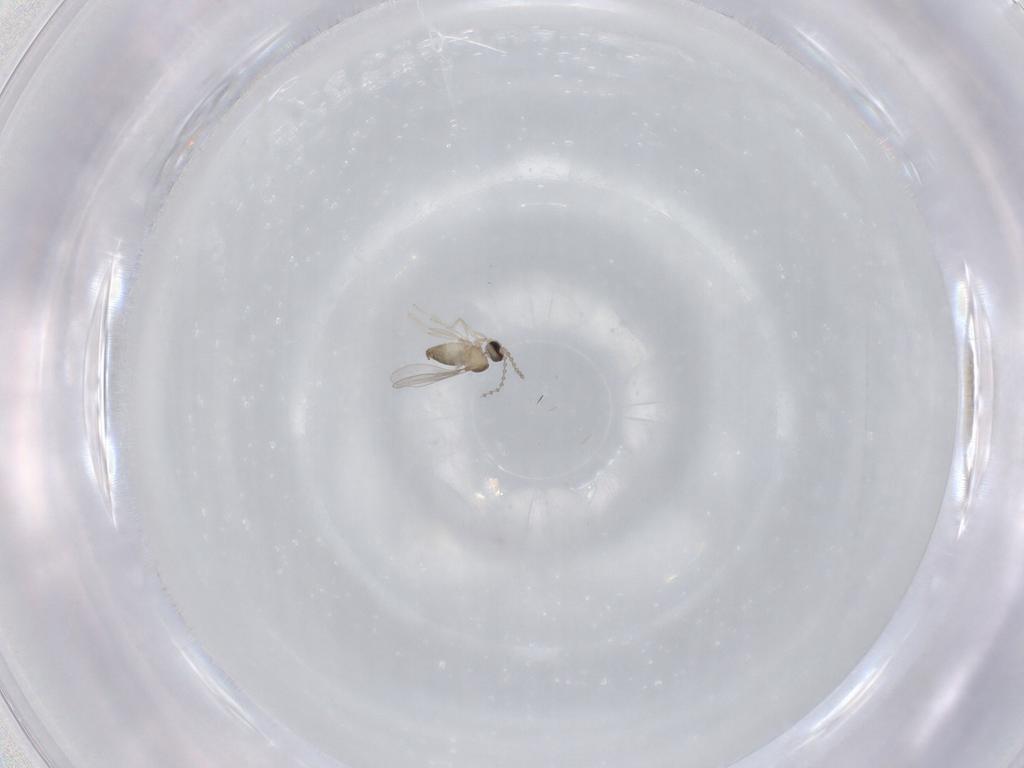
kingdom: Animalia
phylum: Arthropoda
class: Insecta
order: Diptera
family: Cecidomyiidae
